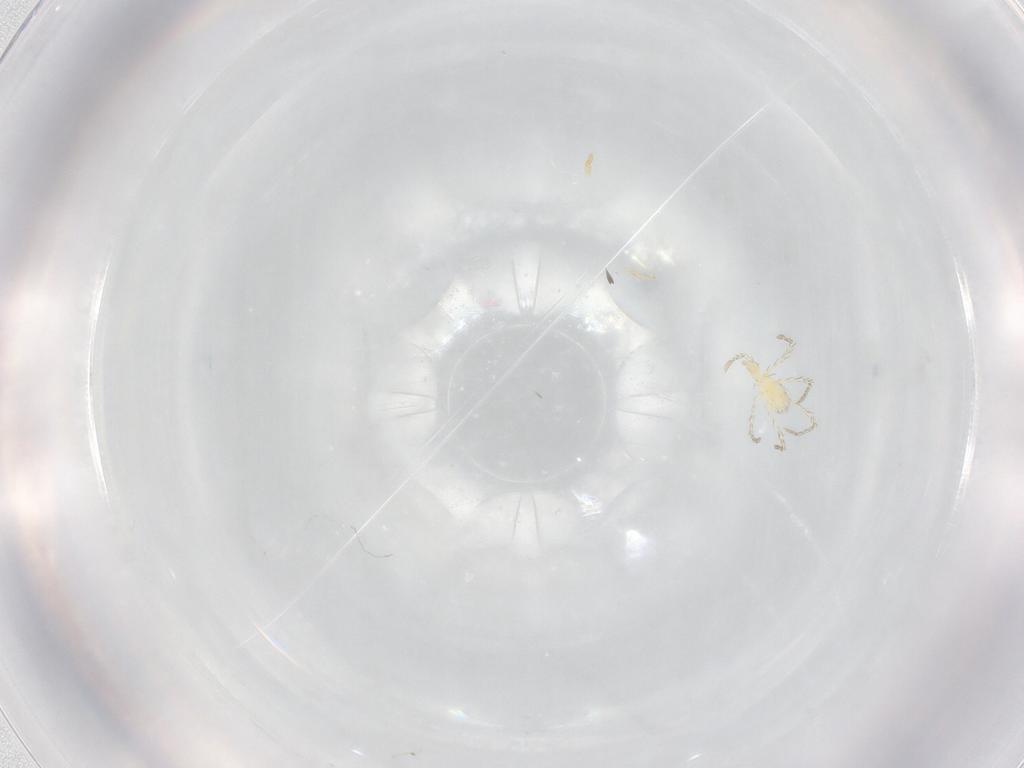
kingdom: Animalia
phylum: Arthropoda
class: Arachnida
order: Trombidiformes
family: Erythraeidae
